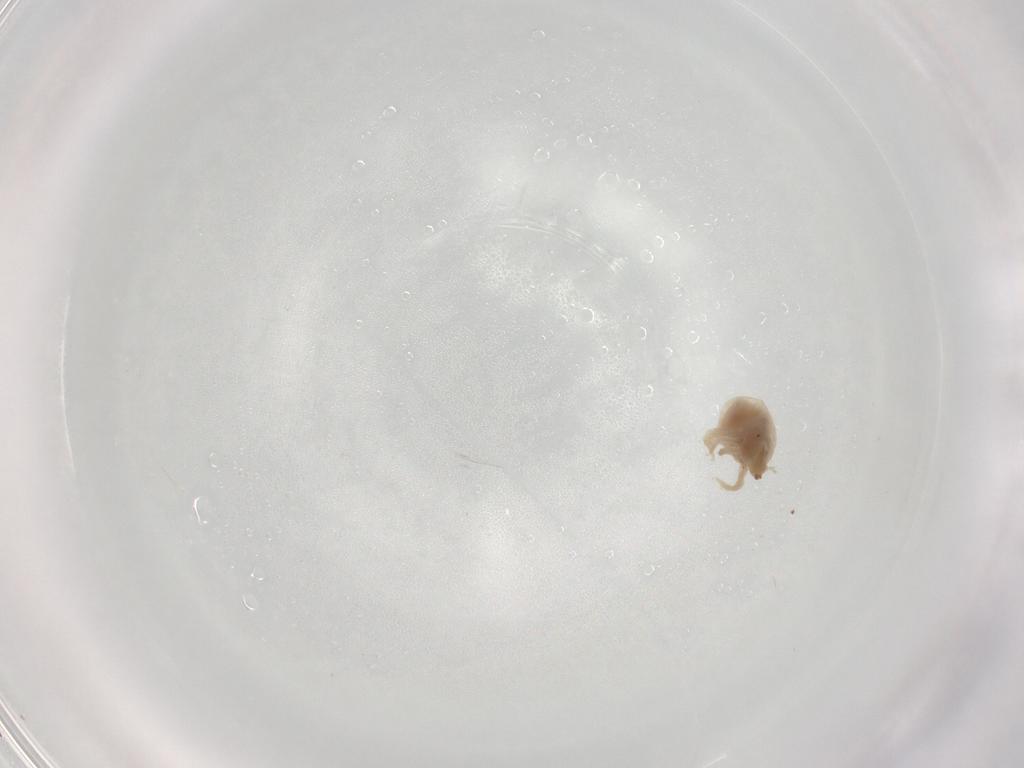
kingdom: Animalia
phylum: Arthropoda
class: Arachnida
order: Trombidiformes
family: Bdellidae
